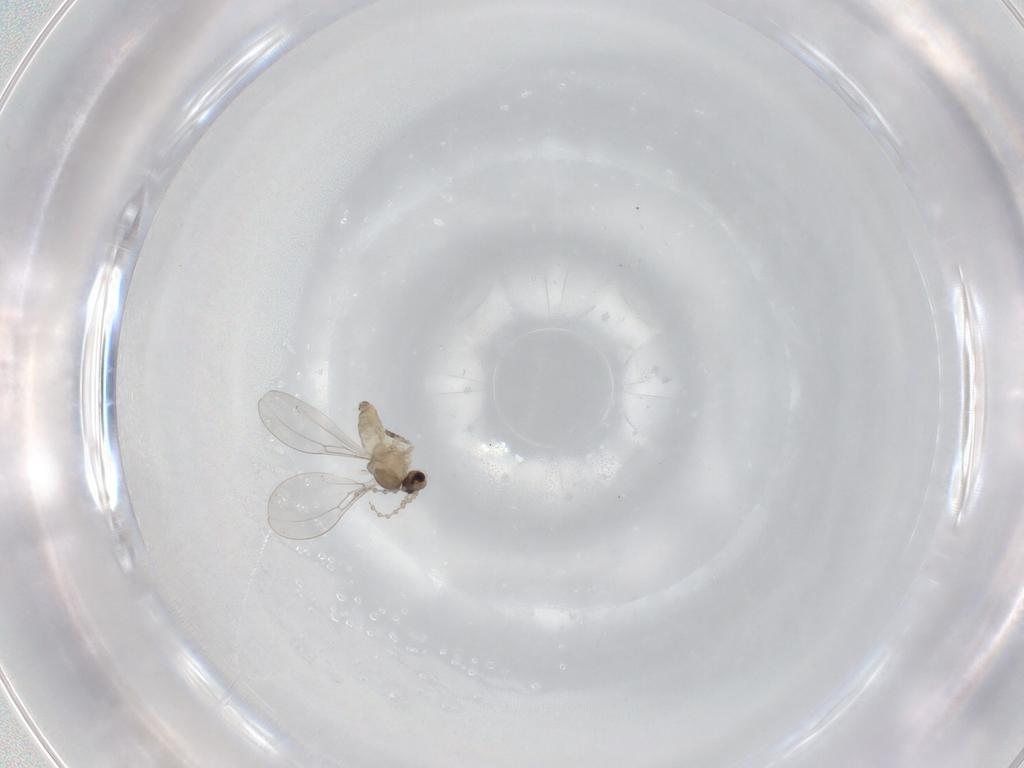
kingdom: Animalia
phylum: Arthropoda
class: Insecta
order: Diptera
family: Cecidomyiidae
